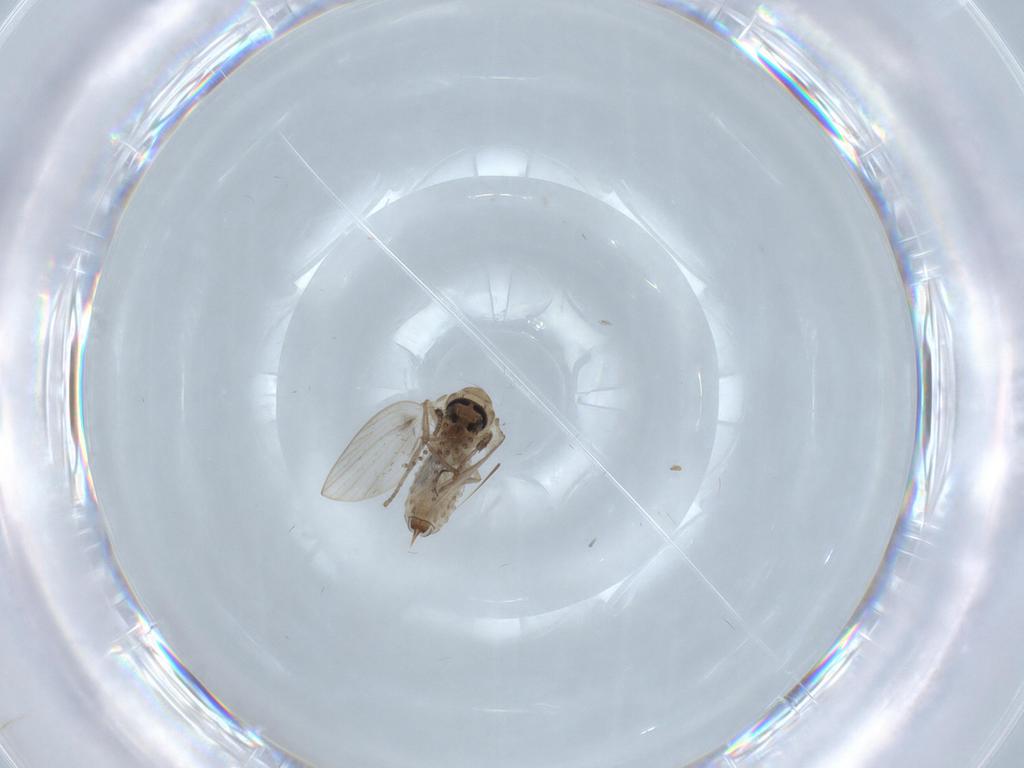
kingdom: Animalia
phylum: Arthropoda
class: Insecta
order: Diptera
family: Psychodidae
